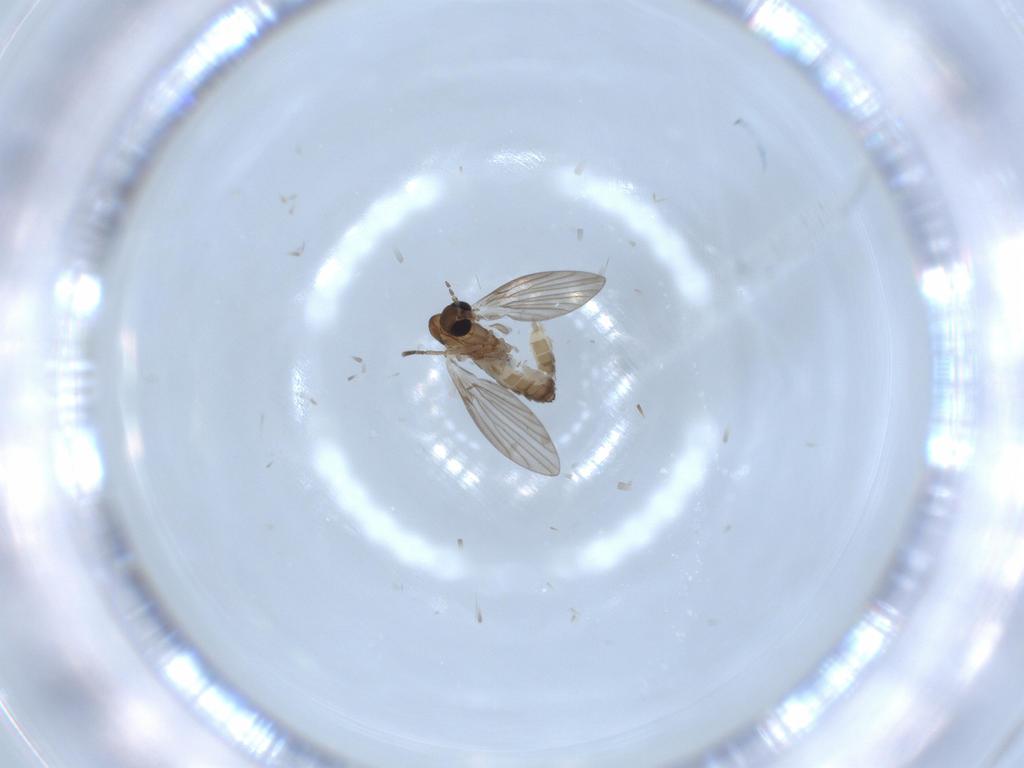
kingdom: Animalia
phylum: Arthropoda
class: Insecta
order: Diptera
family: Psychodidae
